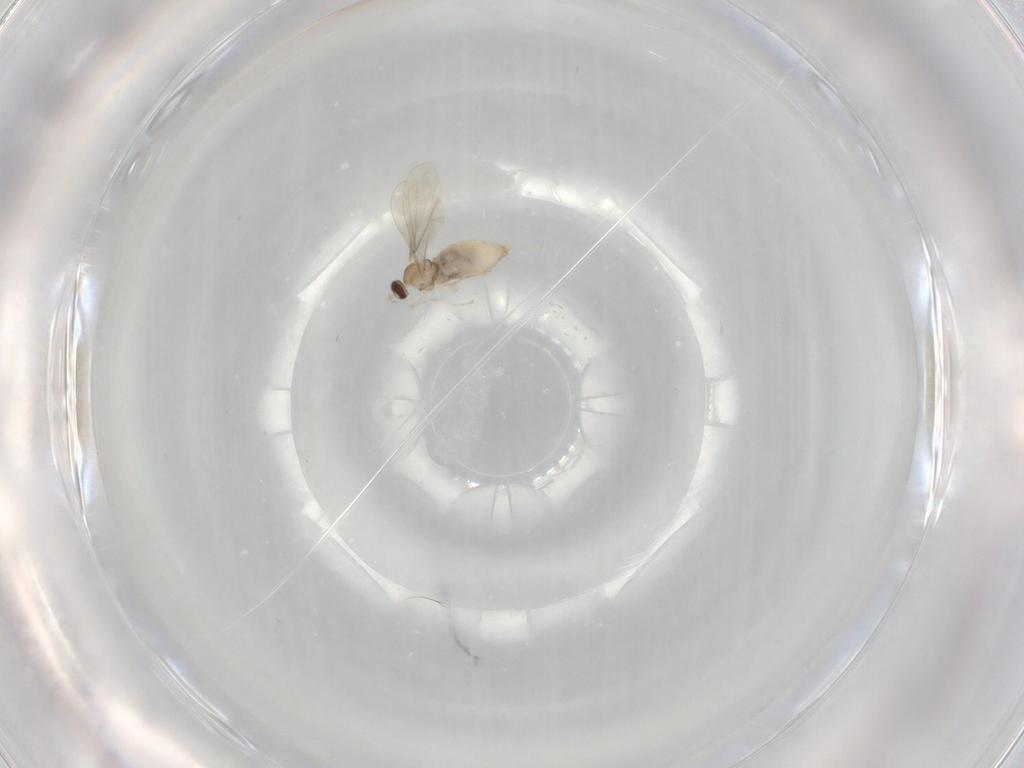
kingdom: Animalia
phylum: Arthropoda
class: Insecta
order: Diptera
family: Cecidomyiidae
